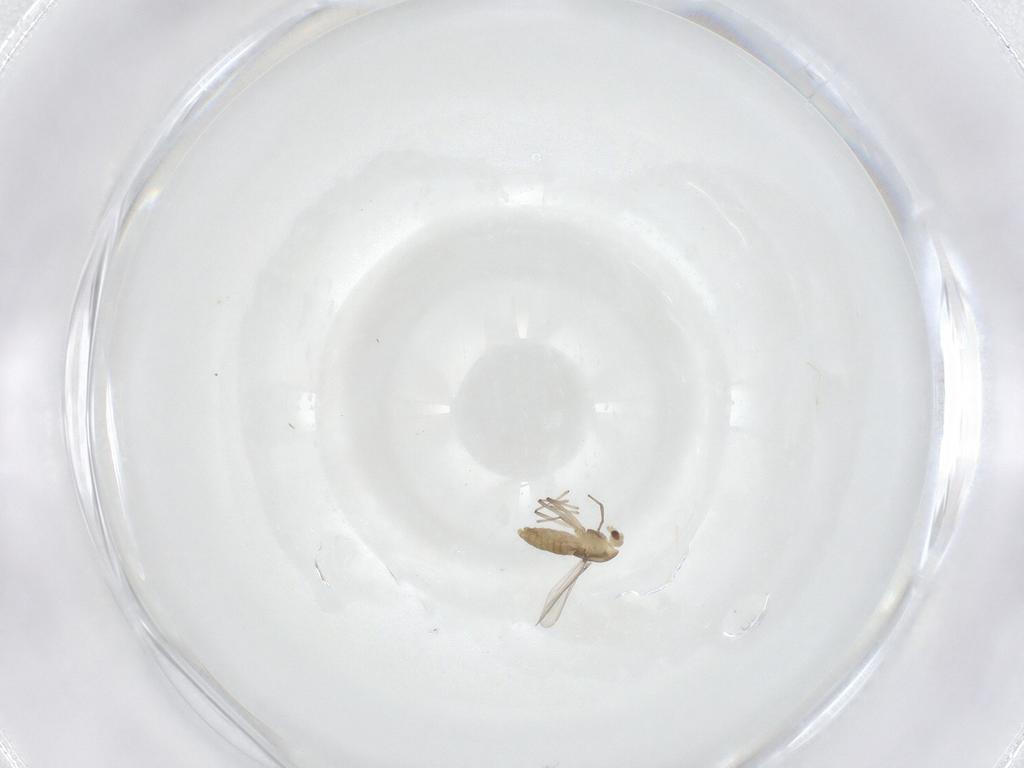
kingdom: Animalia
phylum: Arthropoda
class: Insecta
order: Diptera
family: Chironomidae
